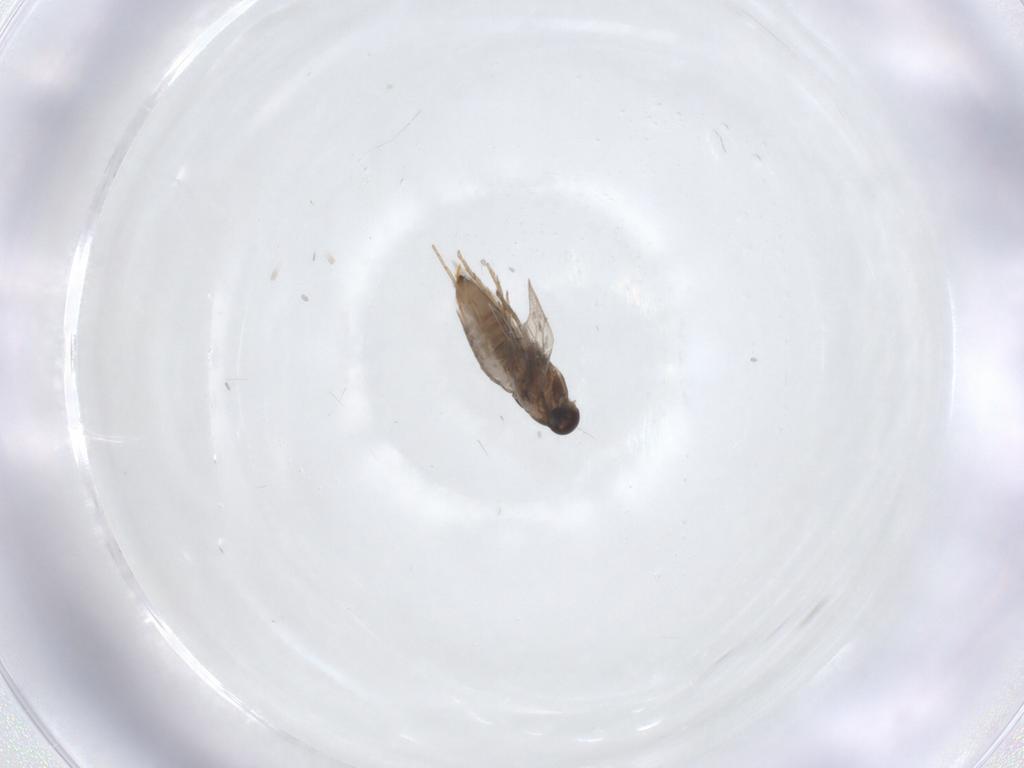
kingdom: Animalia
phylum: Arthropoda
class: Insecta
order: Lepidoptera
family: Heliozelidae
